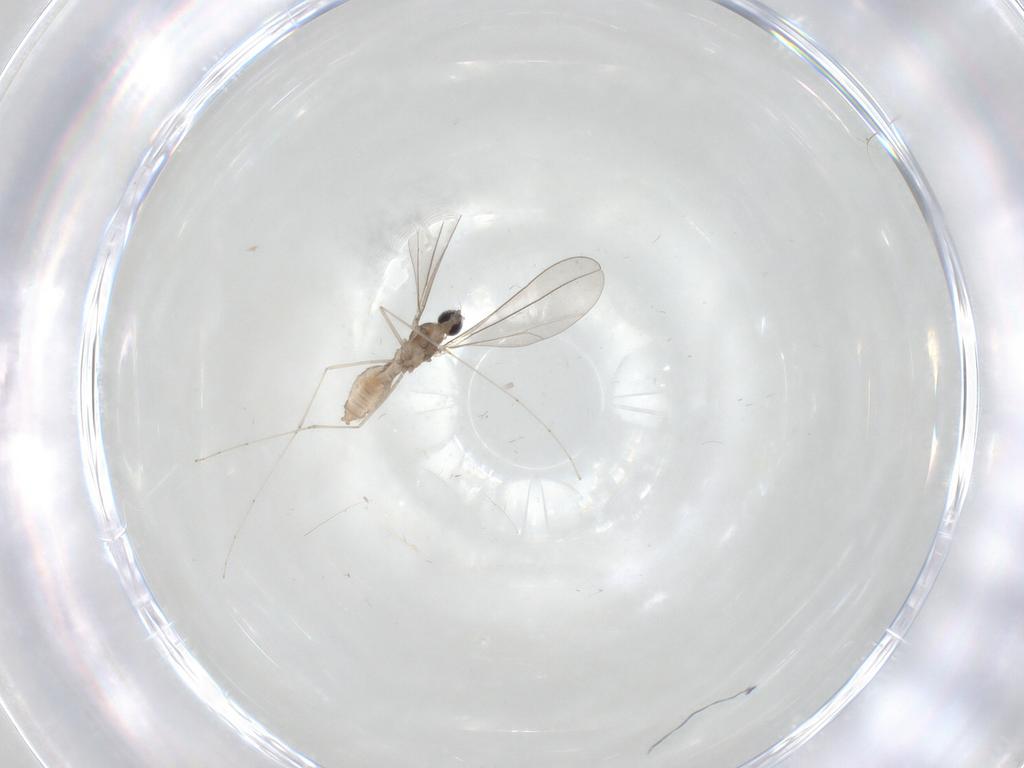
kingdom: Animalia
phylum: Arthropoda
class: Insecta
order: Diptera
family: Cecidomyiidae
